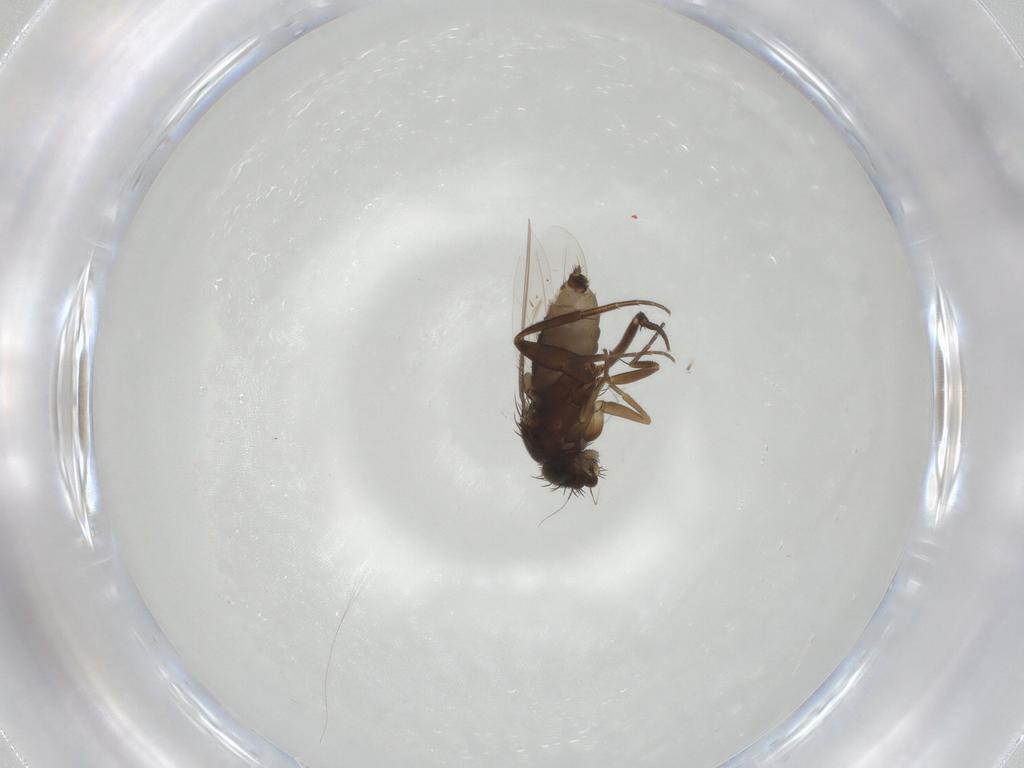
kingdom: Animalia
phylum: Arthropoda
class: Insecta
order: Diptera
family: Phoridae
